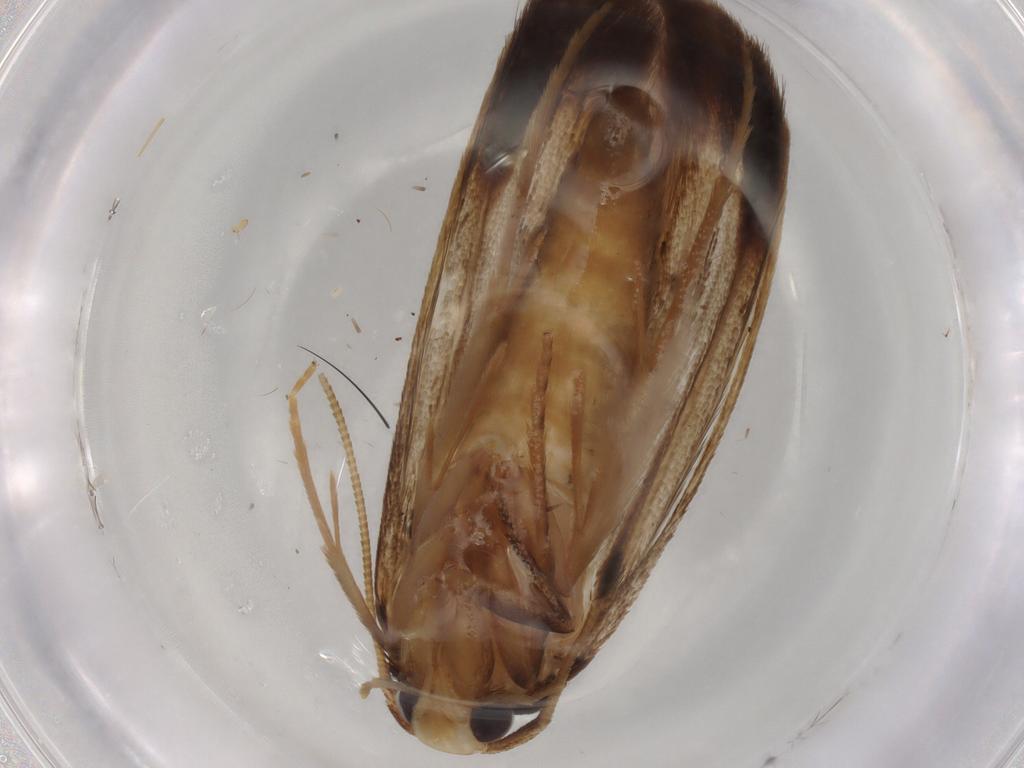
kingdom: Animalia
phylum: Arthropoda
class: Insecta
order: Lepidoptera
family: Tineidae
